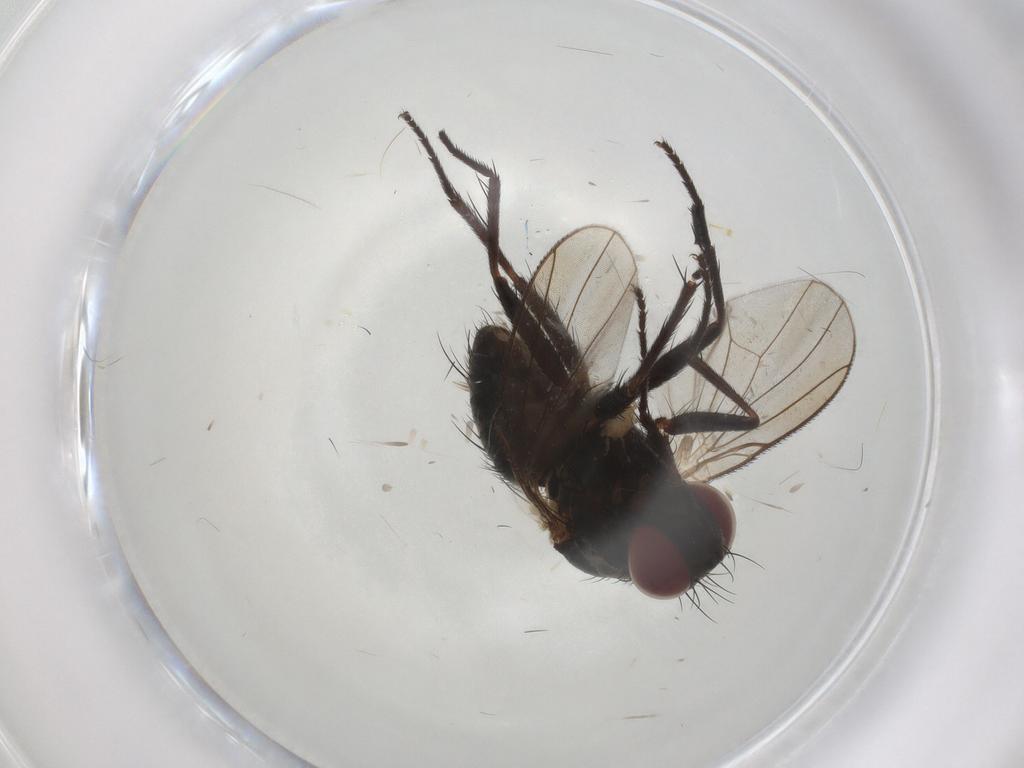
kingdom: Animalia
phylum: Arthropoda
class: Insecta
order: Diptera
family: Muscidae
